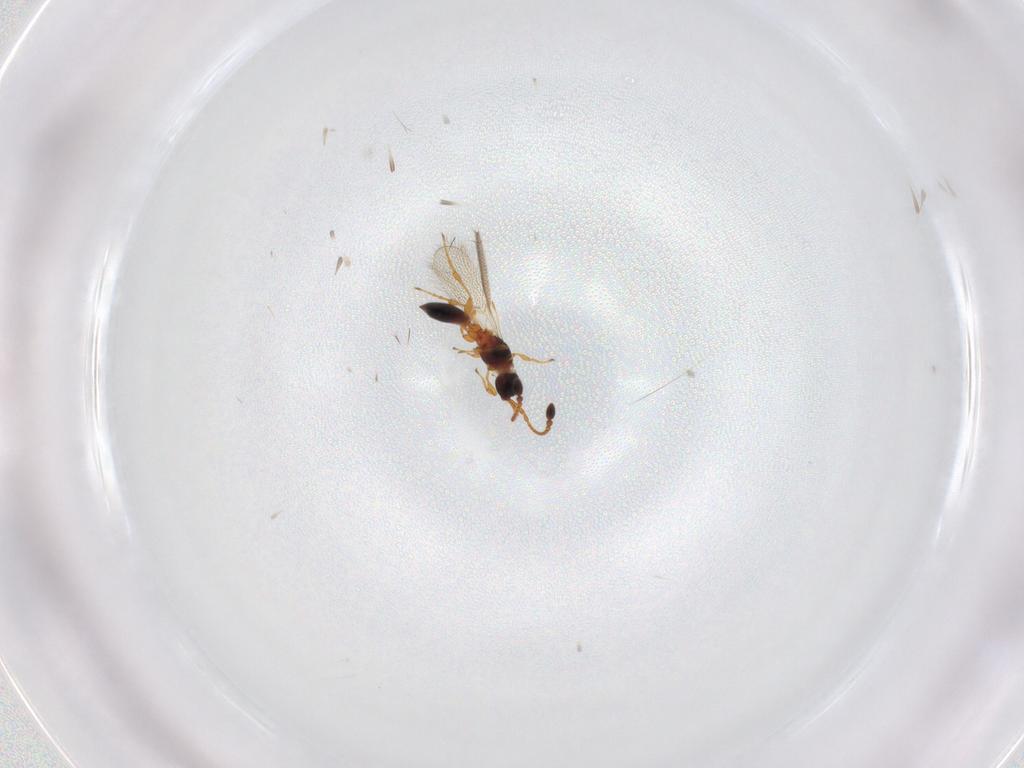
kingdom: Animalia
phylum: Arthropoda
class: Insecta
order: Hymenoptera
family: Diapriidae
